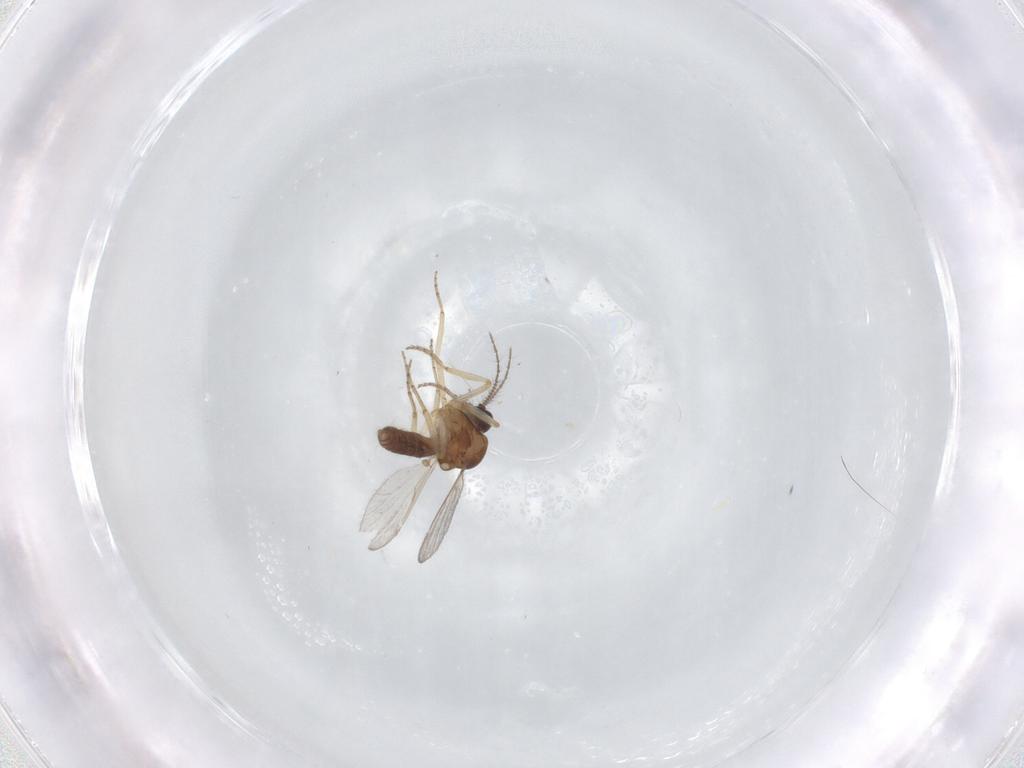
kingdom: Animalia
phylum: Arthropoda
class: Insecta
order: Diptera
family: Ceratopogonidae
